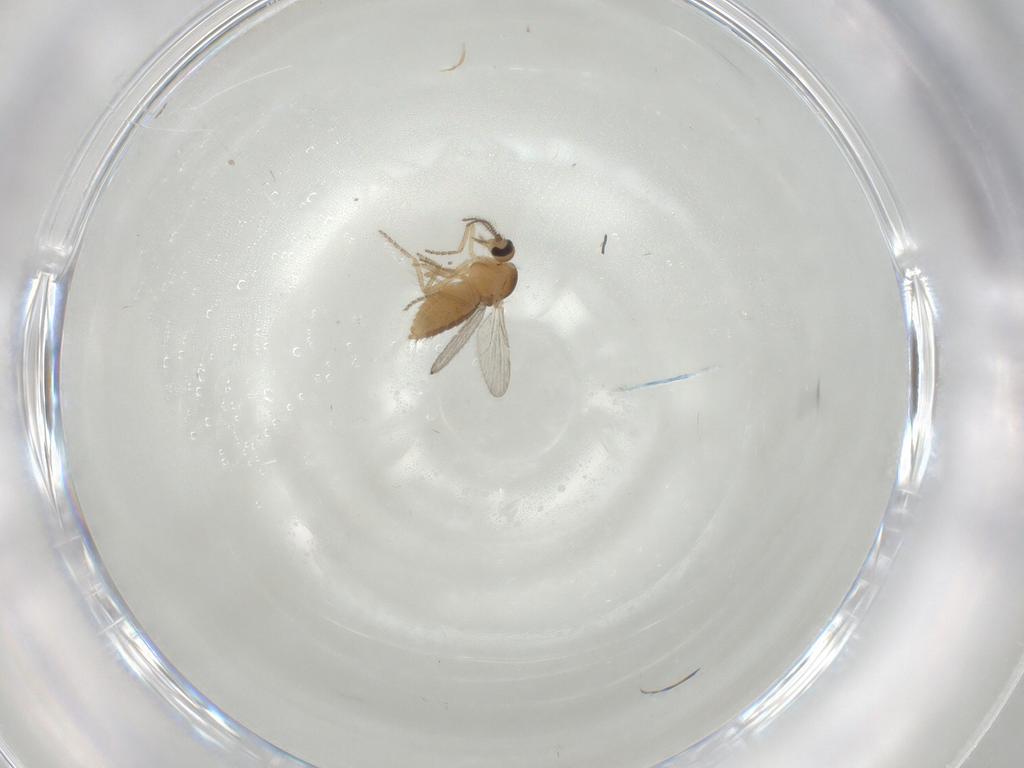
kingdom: Animalia
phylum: Arthropoda
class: Insecta
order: Diptera
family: Ceratopogonidae
